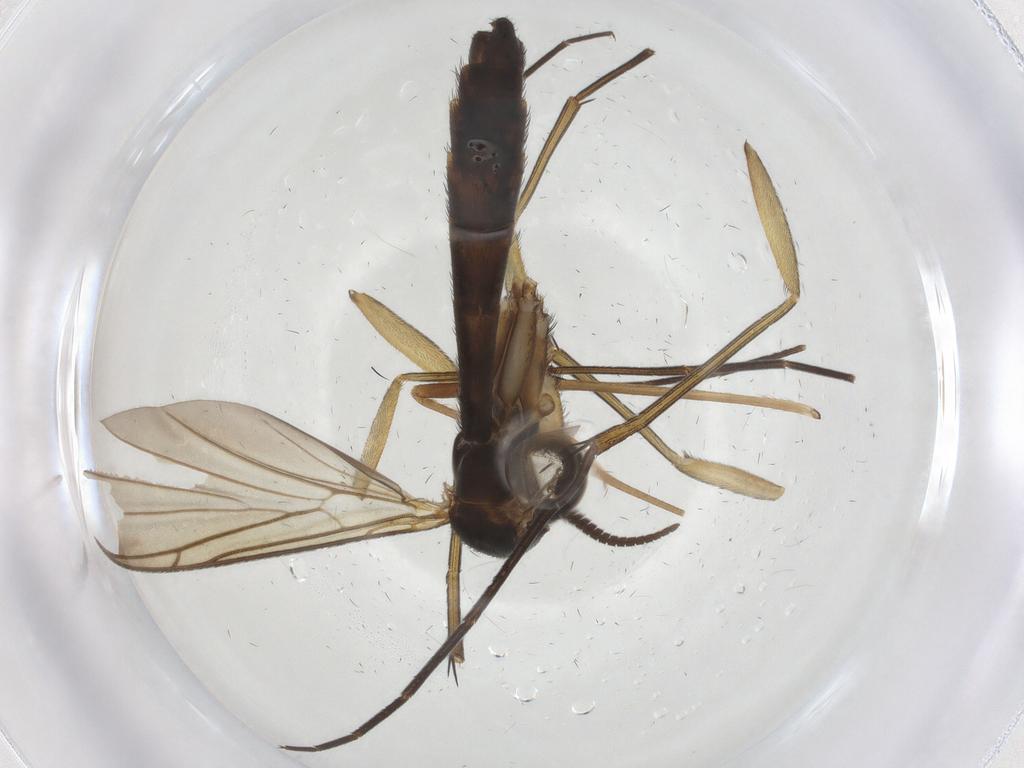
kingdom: Animalia
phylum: Arthropoda
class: Insecta
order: Diptera
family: Keroplatidae
